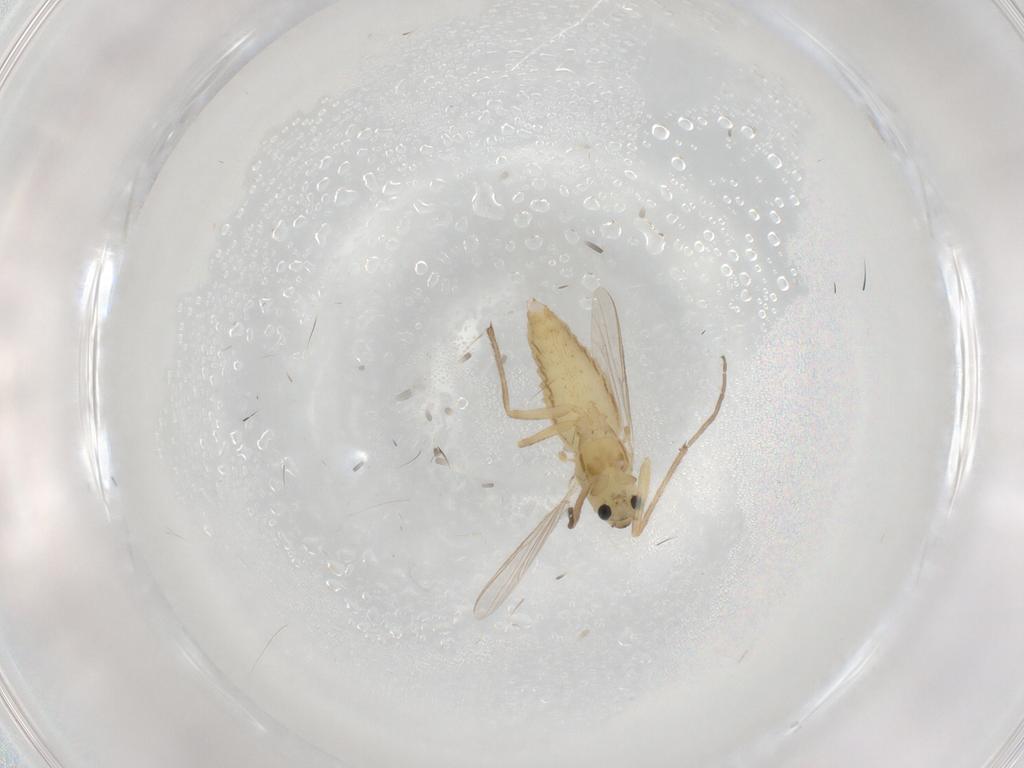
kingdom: Animalia
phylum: Arthropoda
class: Insecta
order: Diptera
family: Chironomidae
